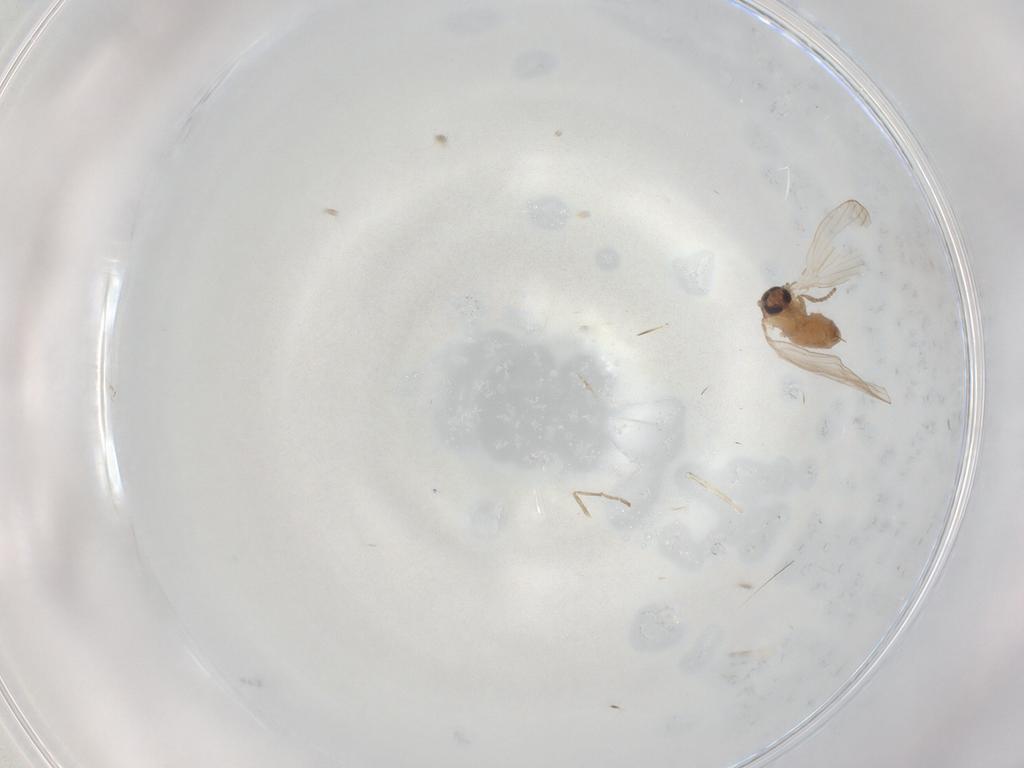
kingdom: Animalia
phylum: Arthropoda
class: Insecta
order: Diptera
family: Psychodidae
